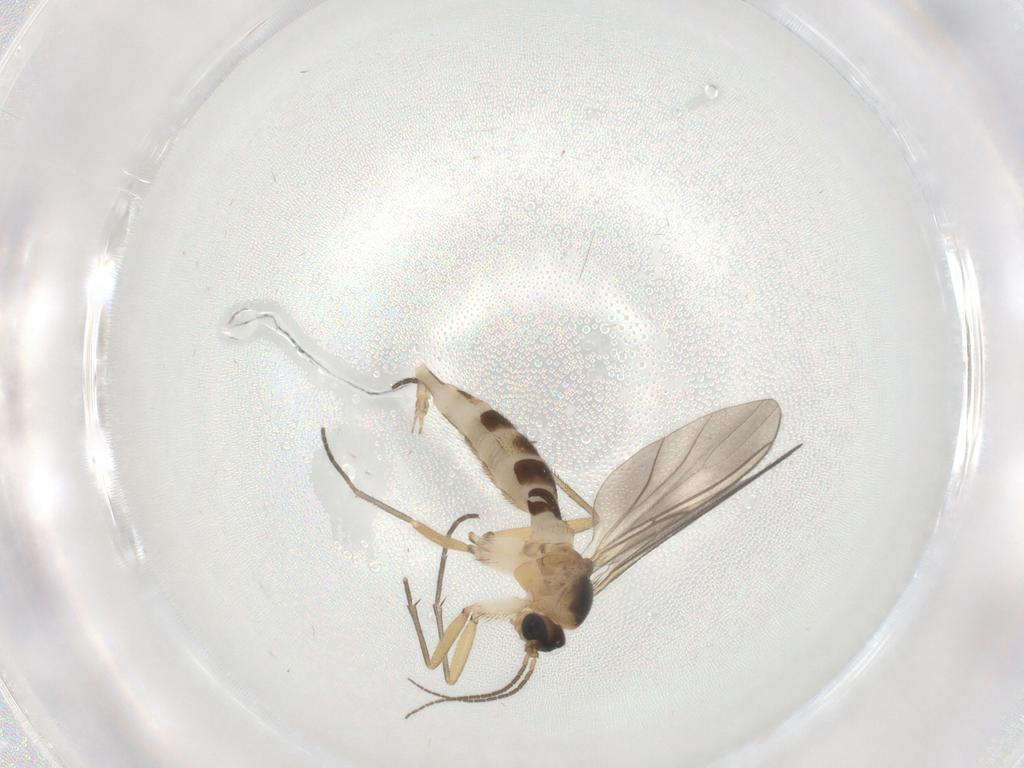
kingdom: Animalia
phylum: Arthropoda
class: Insecta
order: Diptera
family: Sciaridae
